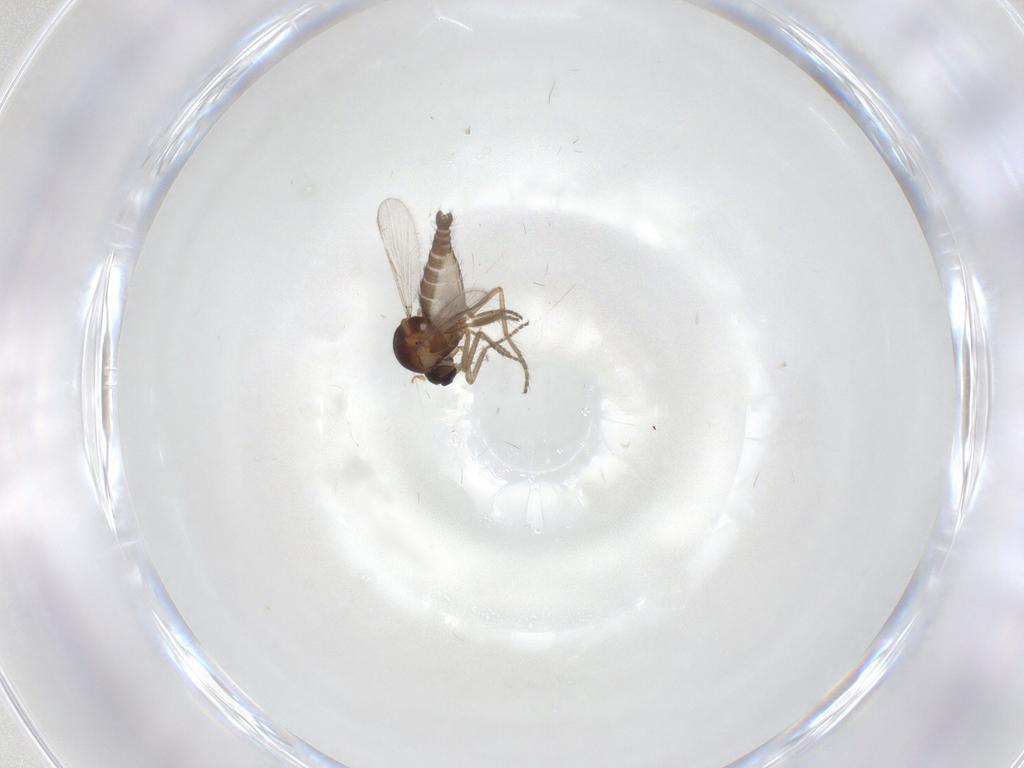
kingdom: Animalia
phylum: Arthropoda
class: Insecta
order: Diptera
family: Ceratopogonidae
